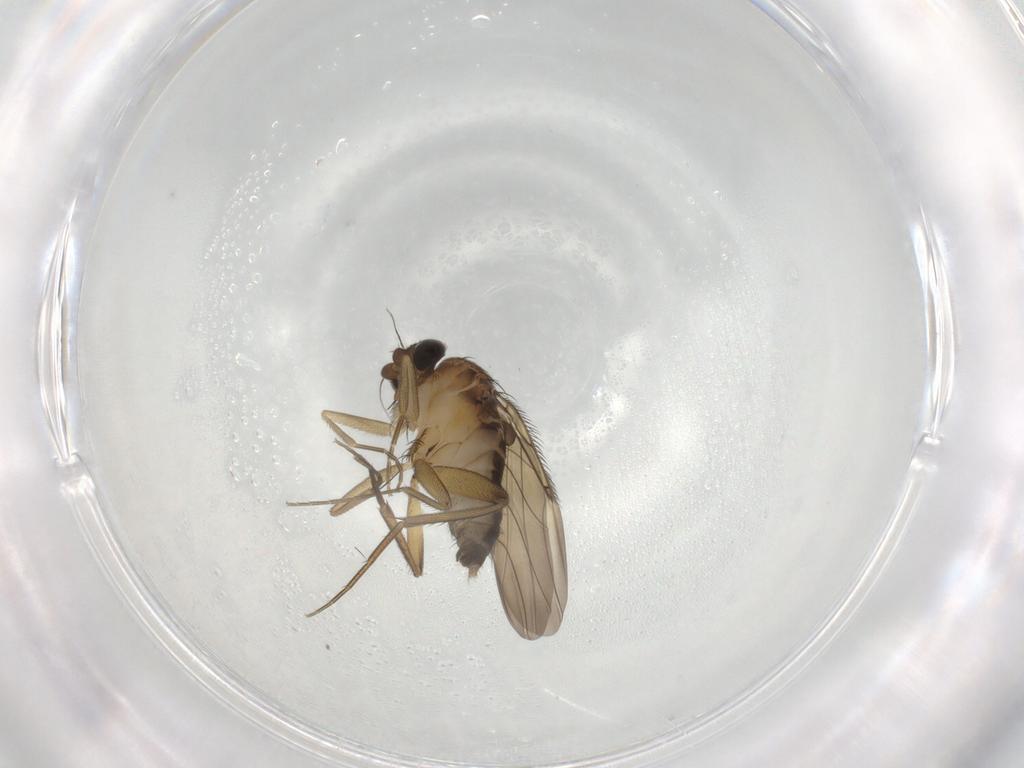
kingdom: Animalia
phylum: Arthropoda
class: Insecta
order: Diptera
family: Phoridae
